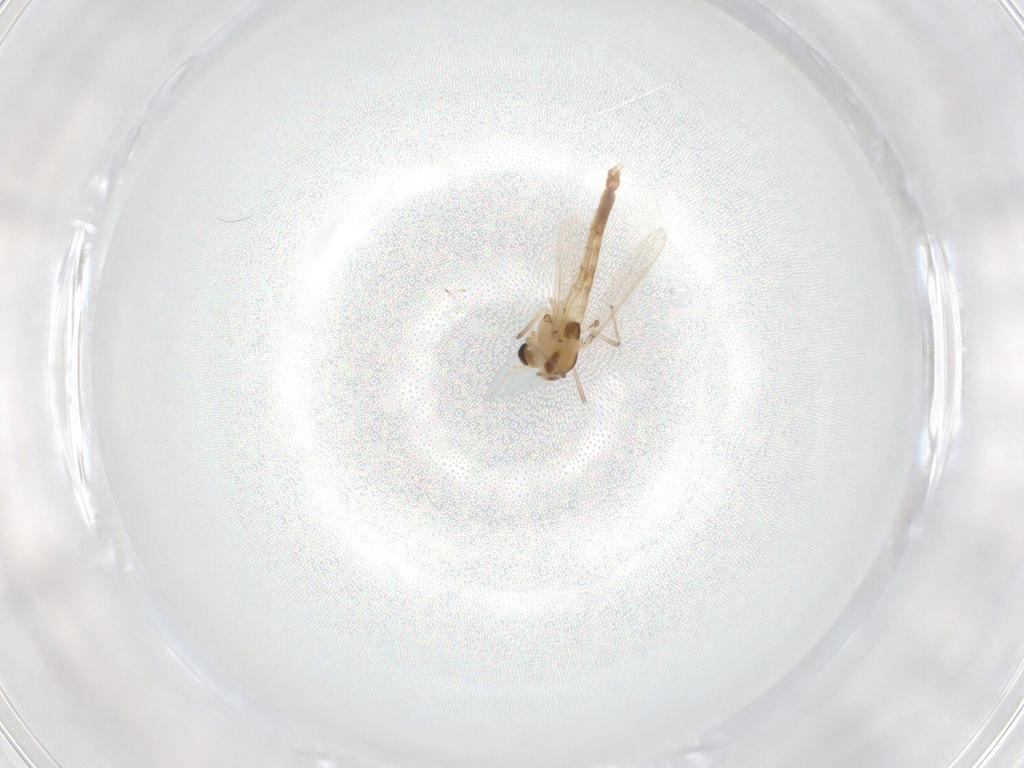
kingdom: Animalia
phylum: Arthropoda
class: Insecta
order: Diptera
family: Chironomidae
